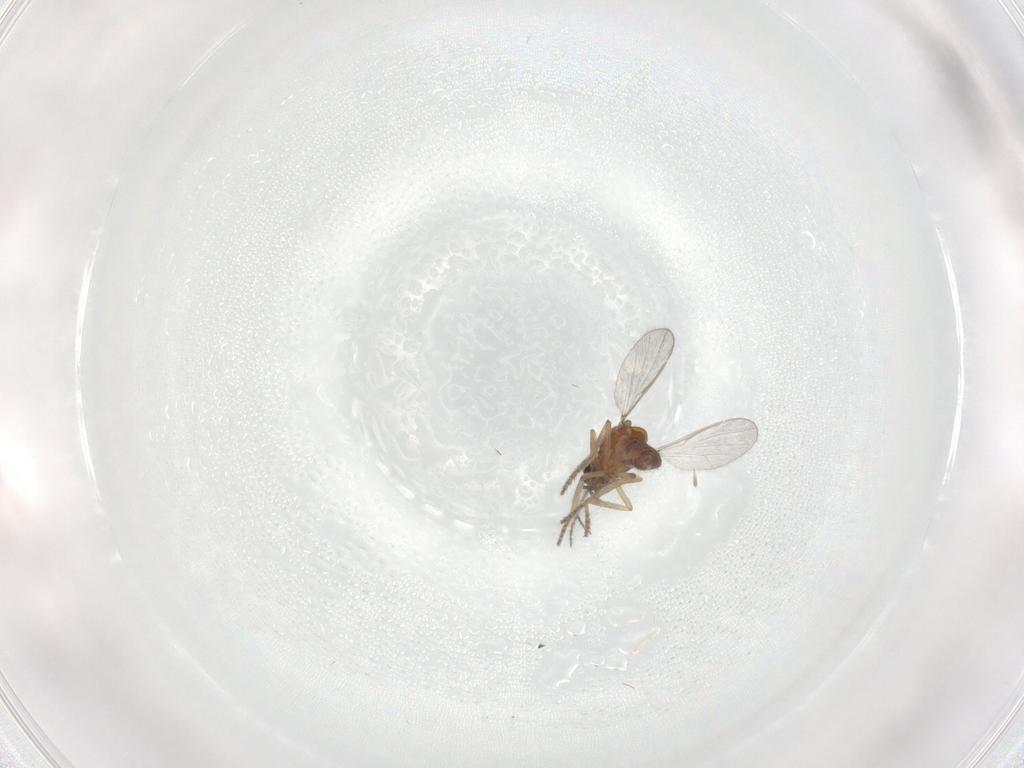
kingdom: Animalia
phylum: Arthropoda
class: Insecta
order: Diptera
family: Ceratopogonidae
